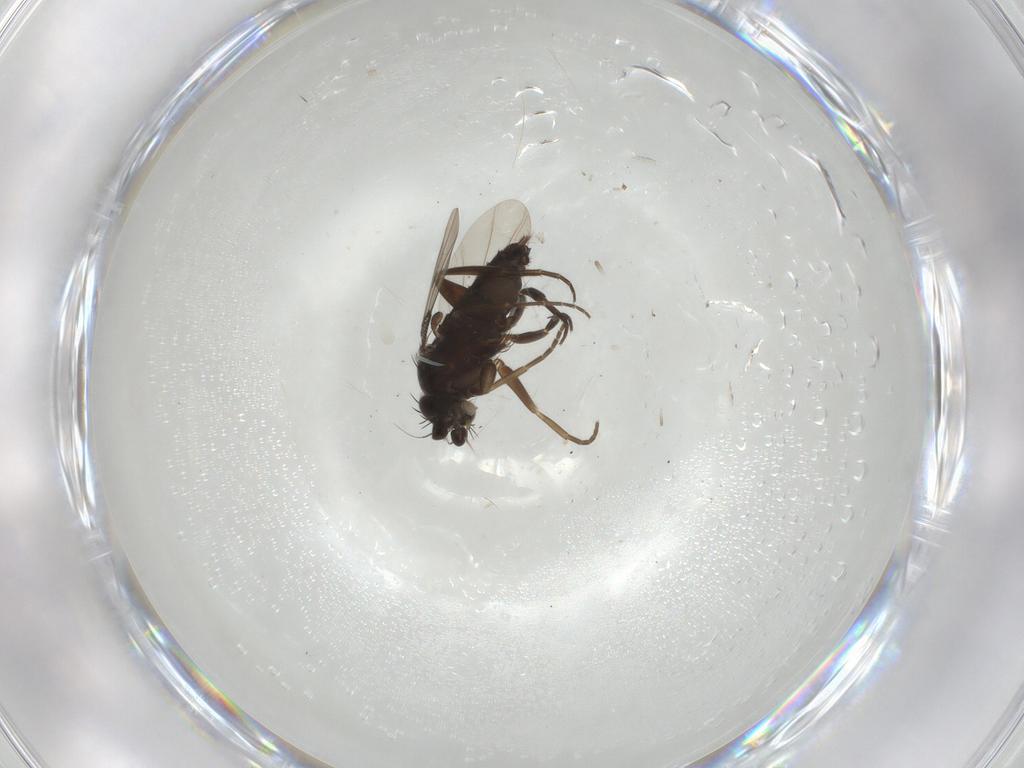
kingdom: Animalia
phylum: Arthropoda
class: Insecta
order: Diptera
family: Phoridae
